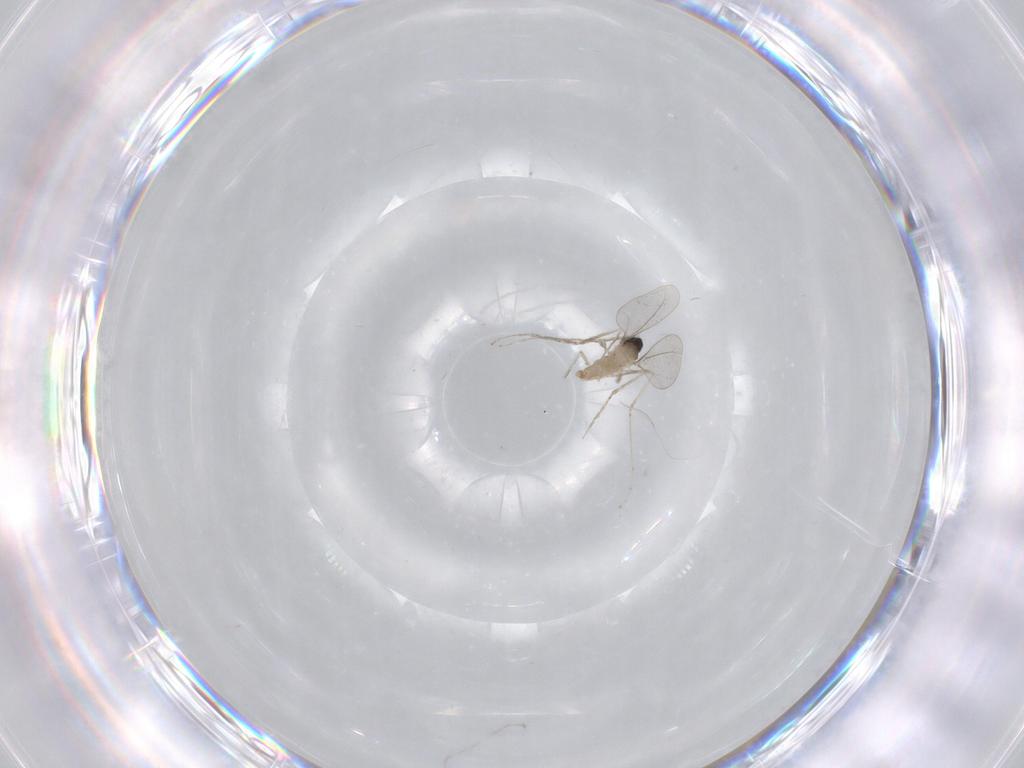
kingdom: Animalia
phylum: Arthropoda
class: Insecta
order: Diptera
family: Cecidomyiidae
